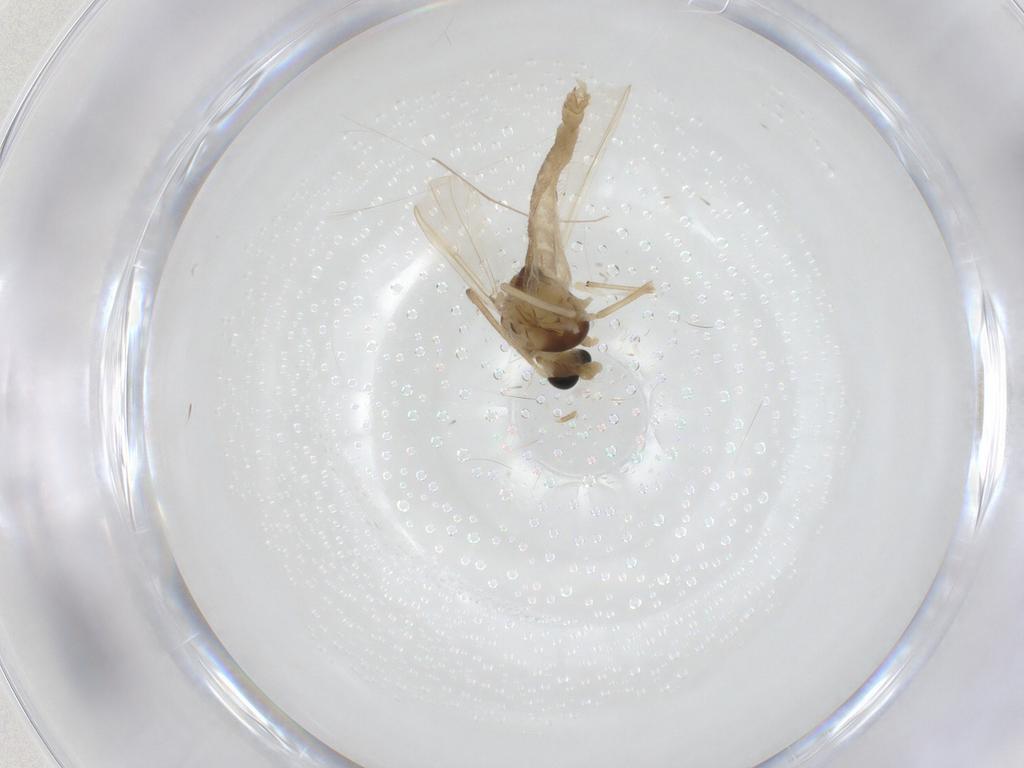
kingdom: Animalia
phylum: Arthropoda
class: Insecta
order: Diptera
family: Chironomidae
